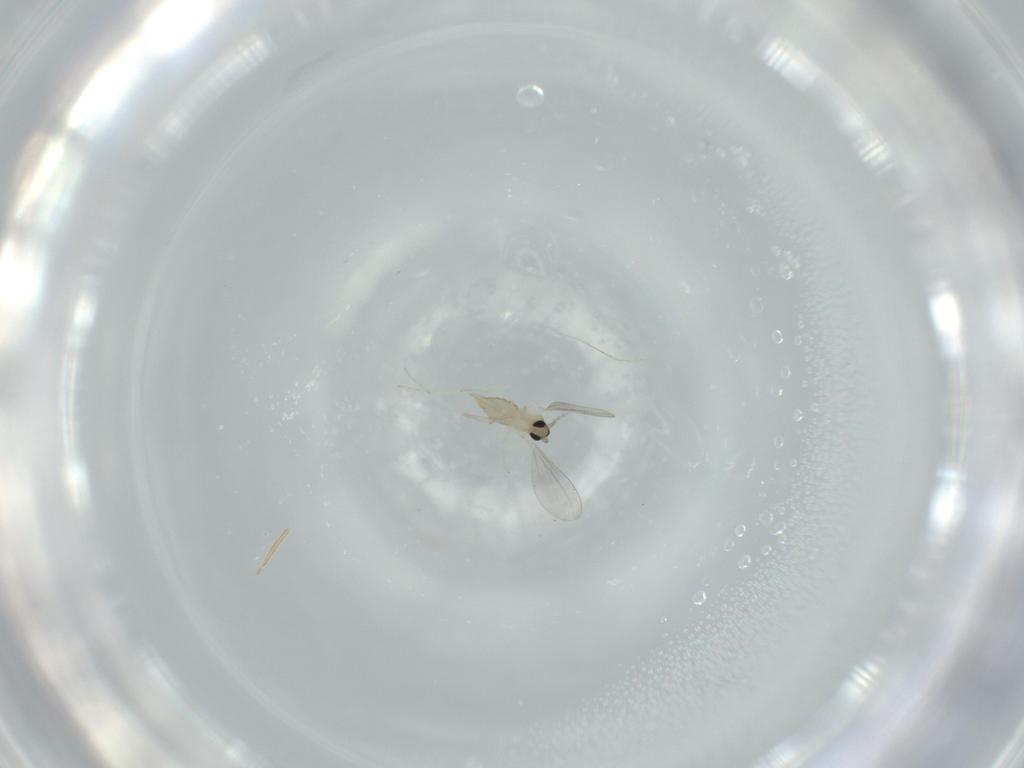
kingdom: Animalia
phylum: Arthropoda
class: Insecta
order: Diptera
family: Cecidomyiidae
